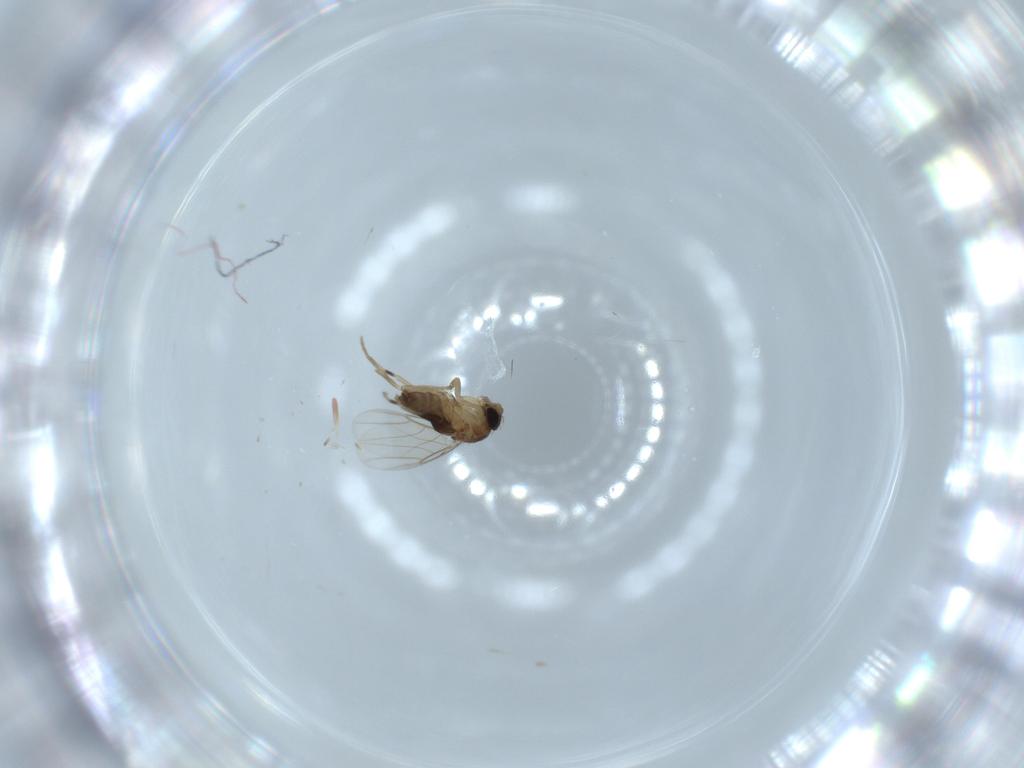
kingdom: Animalia
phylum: Arthropoda
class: Insecta
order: Diptera
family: Phoridae
